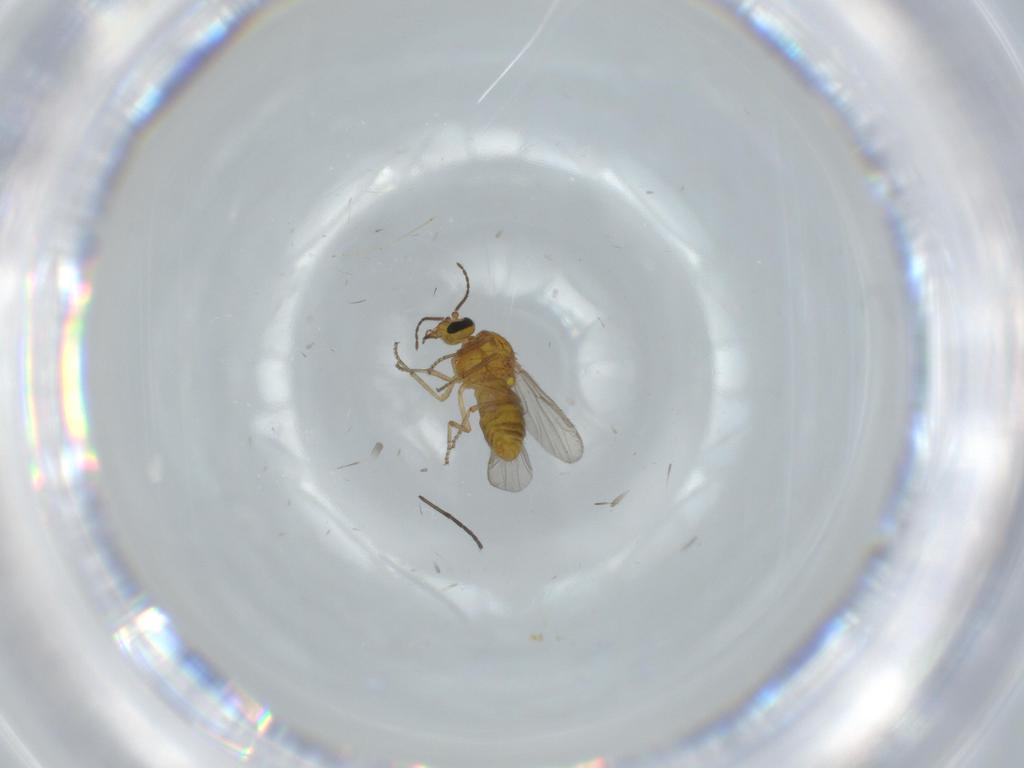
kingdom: Animalia
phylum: Arthropoda
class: Insecta
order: Diptera
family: Ceratopogonidae
